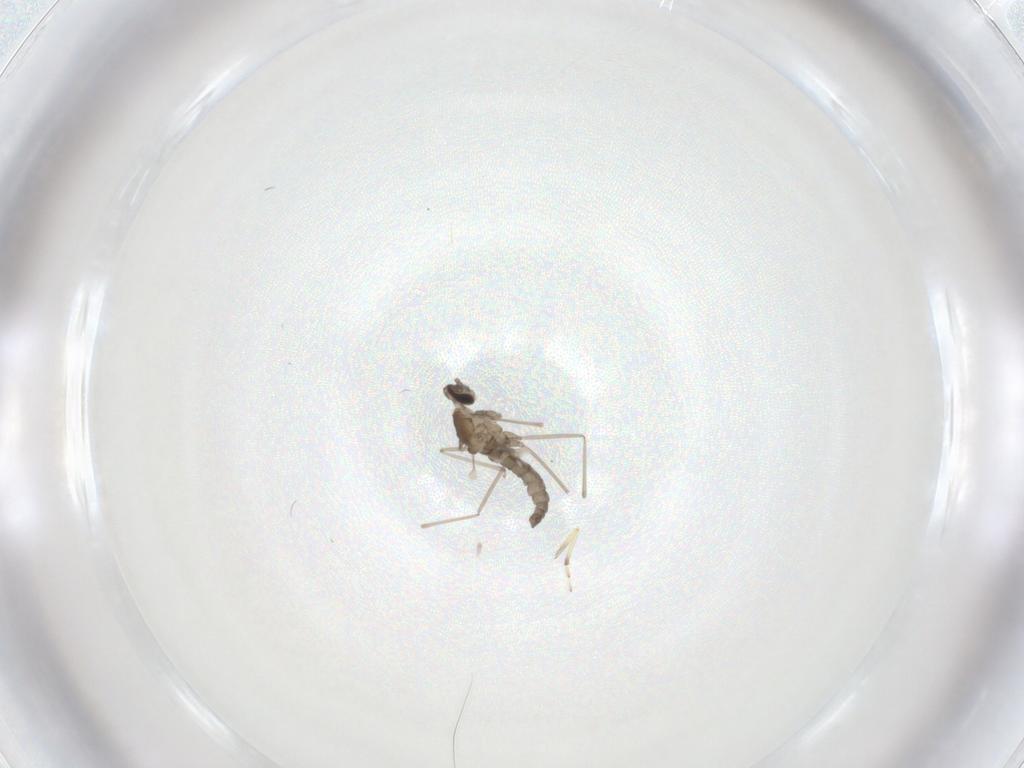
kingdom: Animalia
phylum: Arthropoda
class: Insecta
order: Diptera
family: Cecidomyiidae
